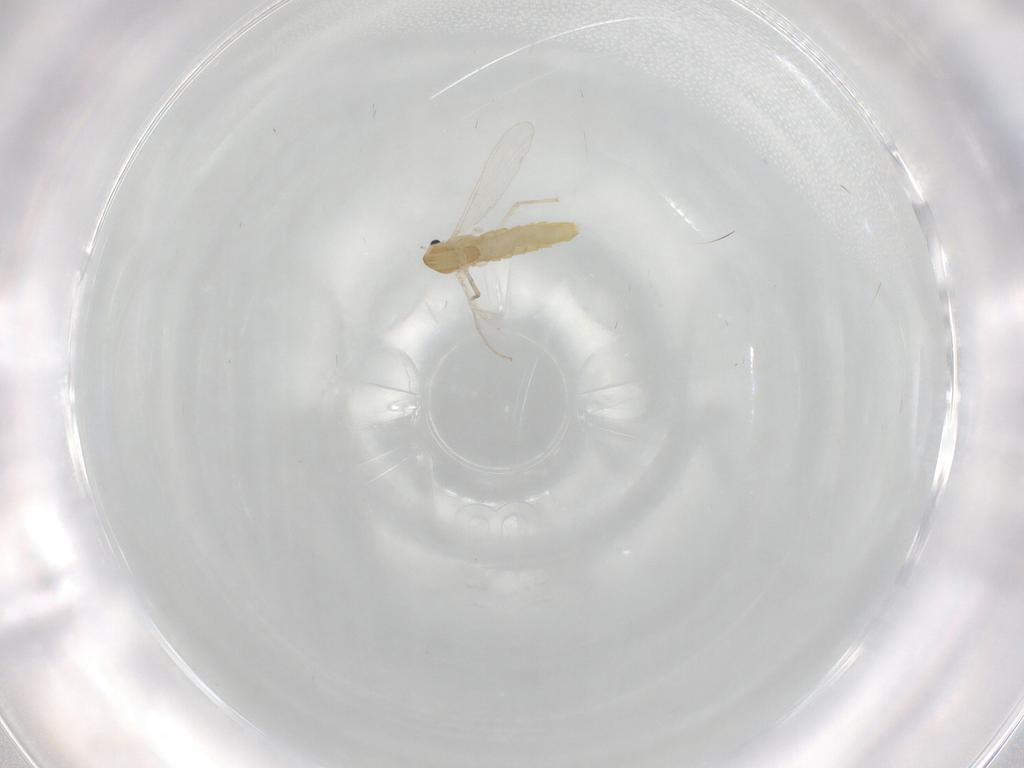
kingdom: Animalia
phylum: Arthropoda
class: Insecta
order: Diptera
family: Chironomidae
